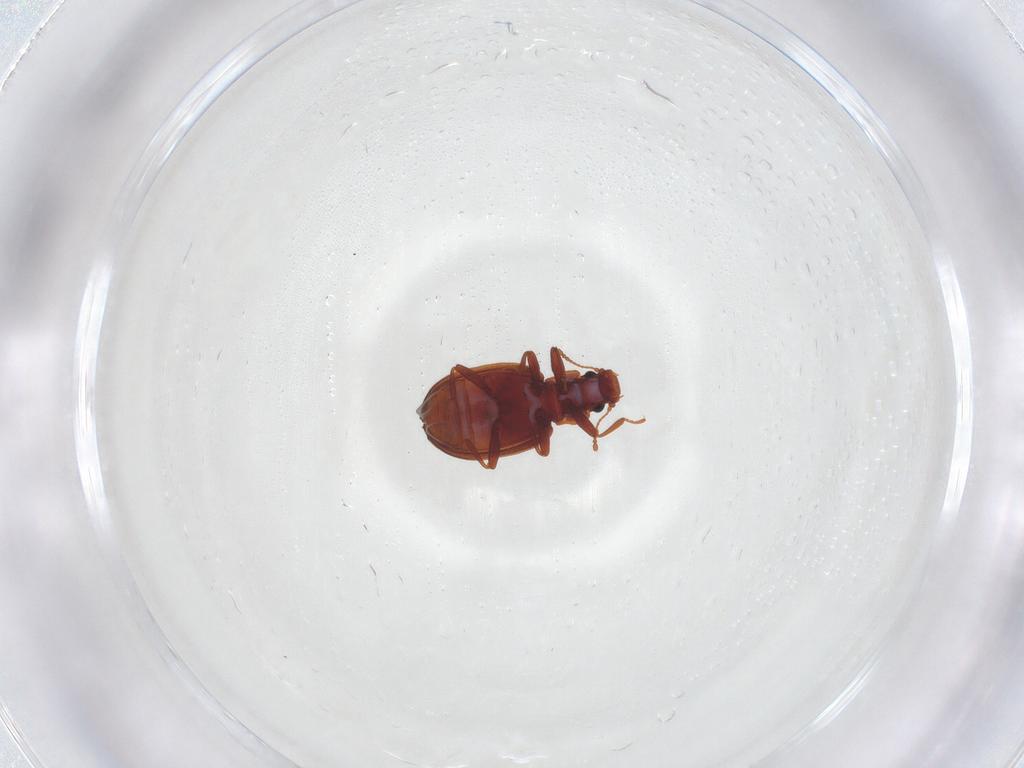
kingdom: Animalia
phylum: Arthropoda
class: Insecta
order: Coleoptera
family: Latridiidae
